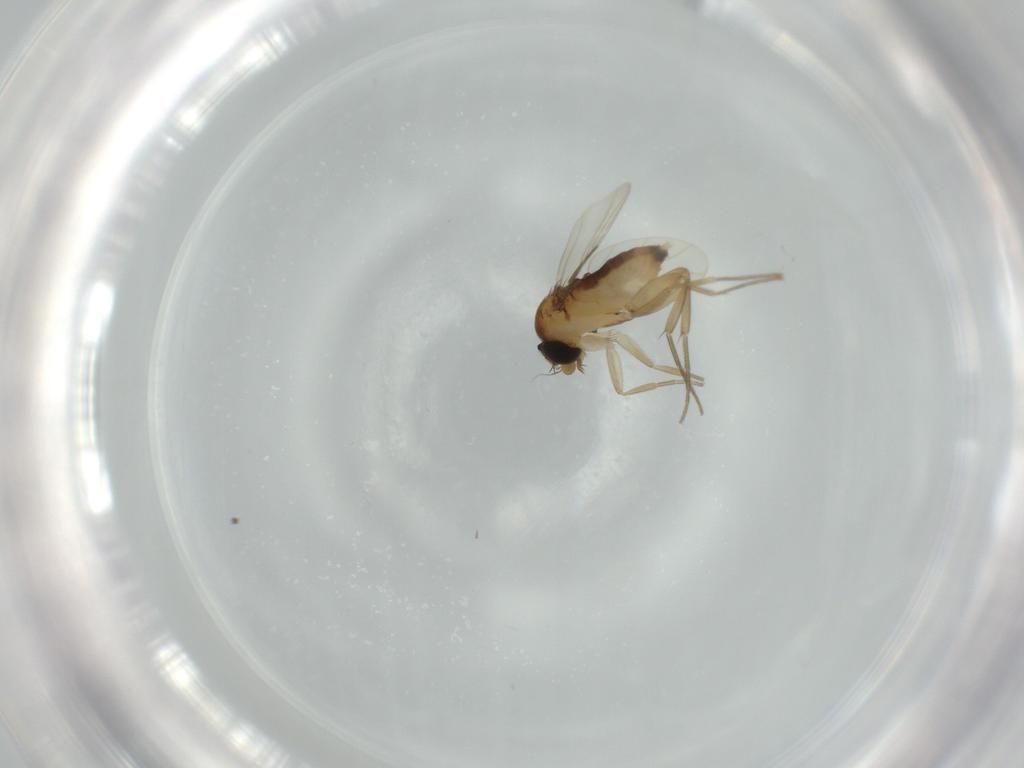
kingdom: Animalia
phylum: Arthropoda
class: Insecta
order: Diptera
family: Phoridae
